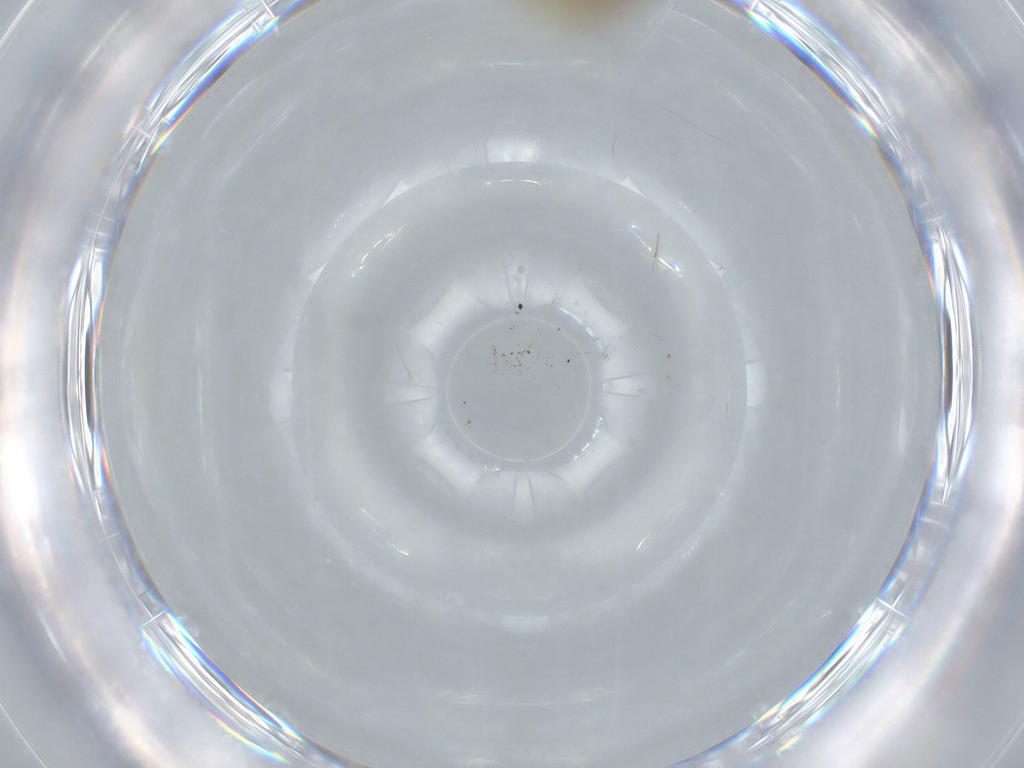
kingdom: Animalia
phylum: Arthropoda
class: Insecta
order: Diptera
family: Chironomidae
